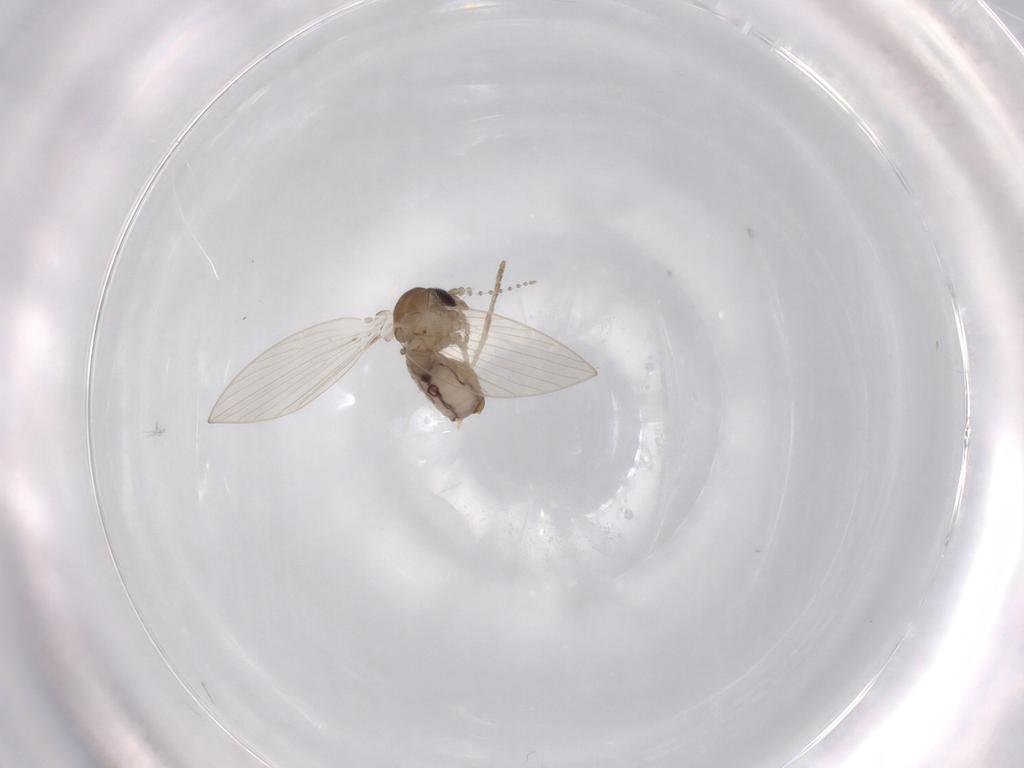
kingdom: Animalia
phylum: Arthropoda
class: Insecta
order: Diptera
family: Psychodidae
